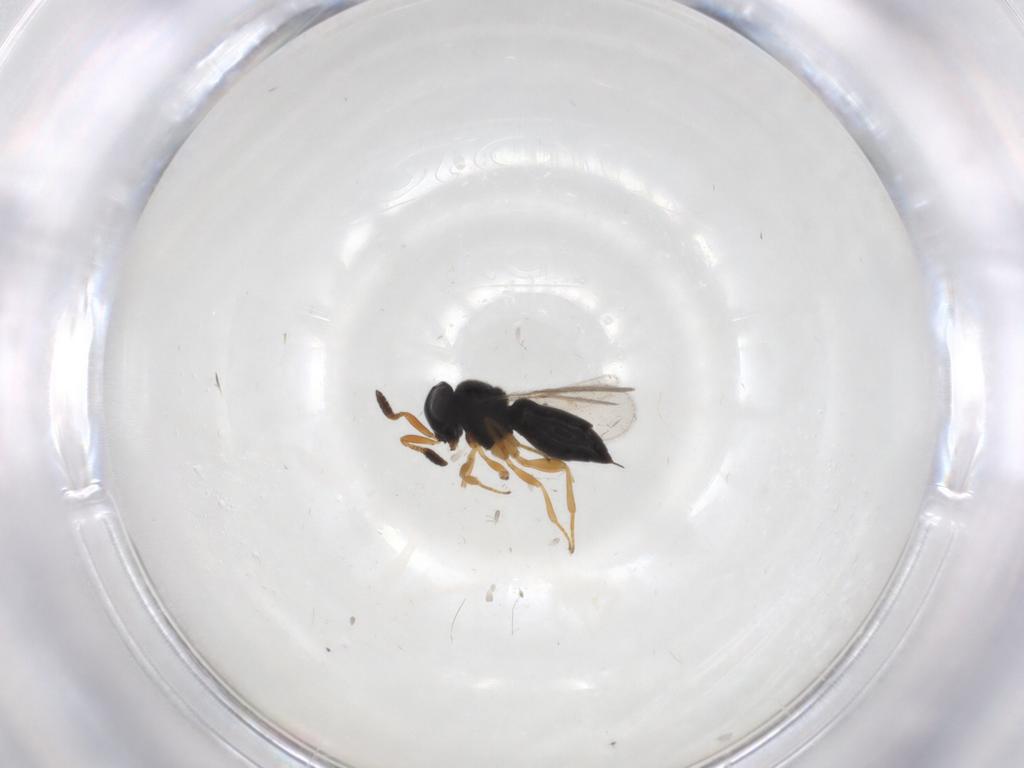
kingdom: Animalia
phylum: Arthropoda
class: Insecta
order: Hymenoptera
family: Scelionidae
